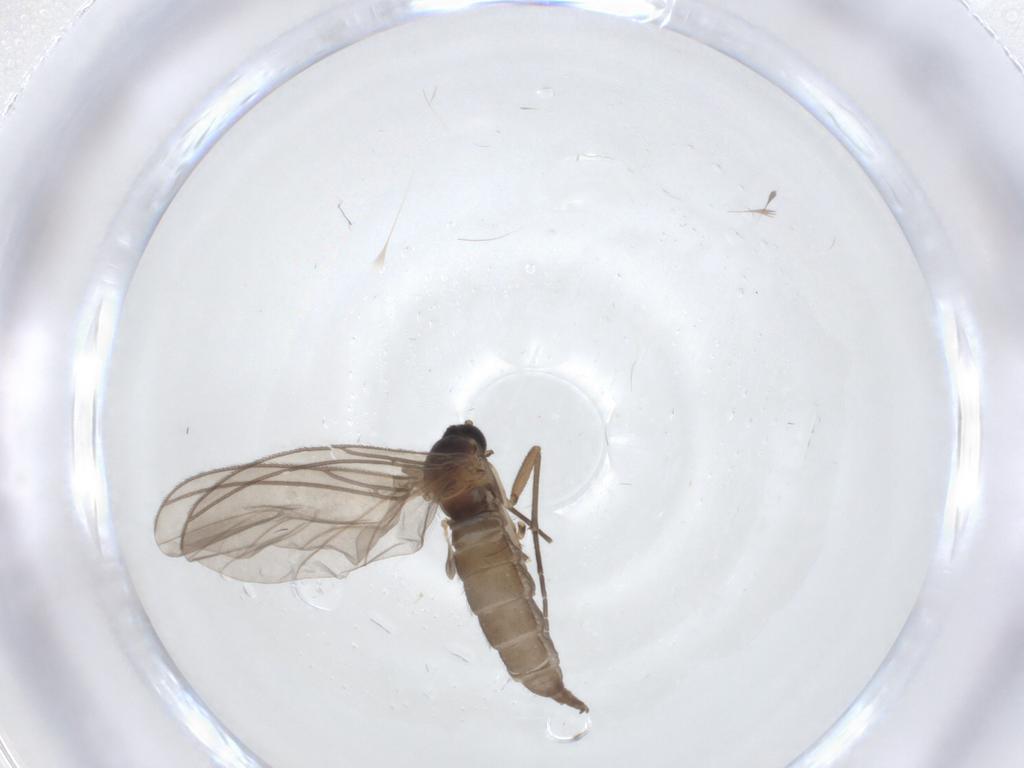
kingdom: Animalia
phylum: Arthropoda
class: Insecta
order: Diptera
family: Sciaridae
